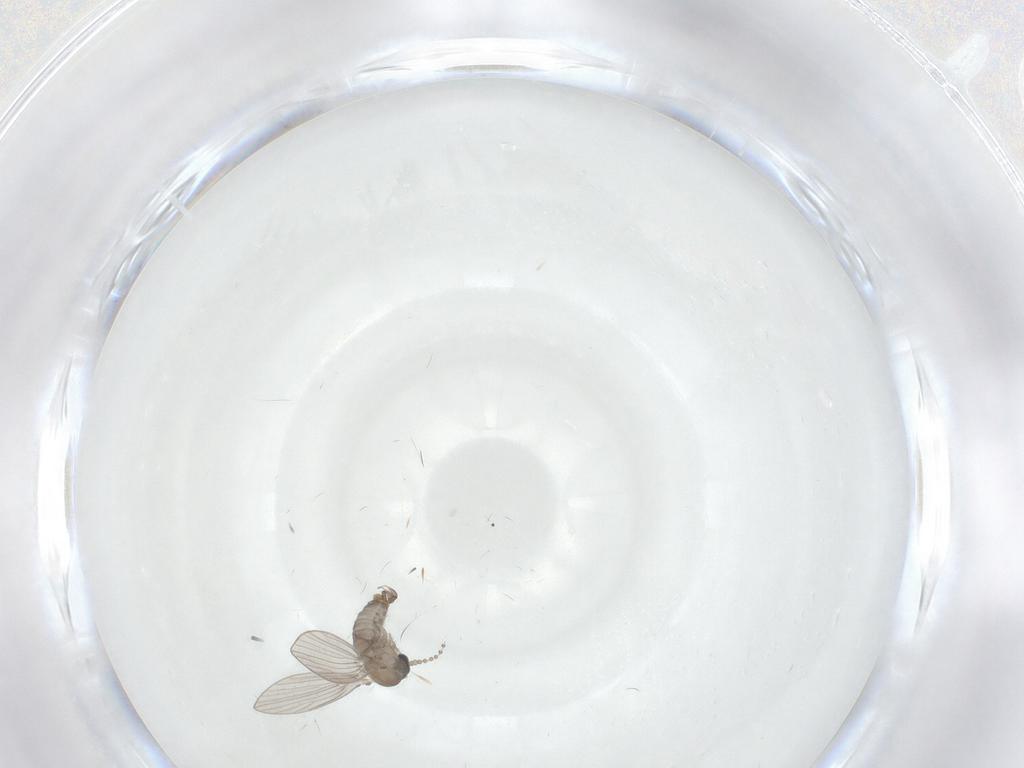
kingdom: Animalia
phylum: Arthropoda
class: Insecta
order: Diptera
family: Psychodidae
